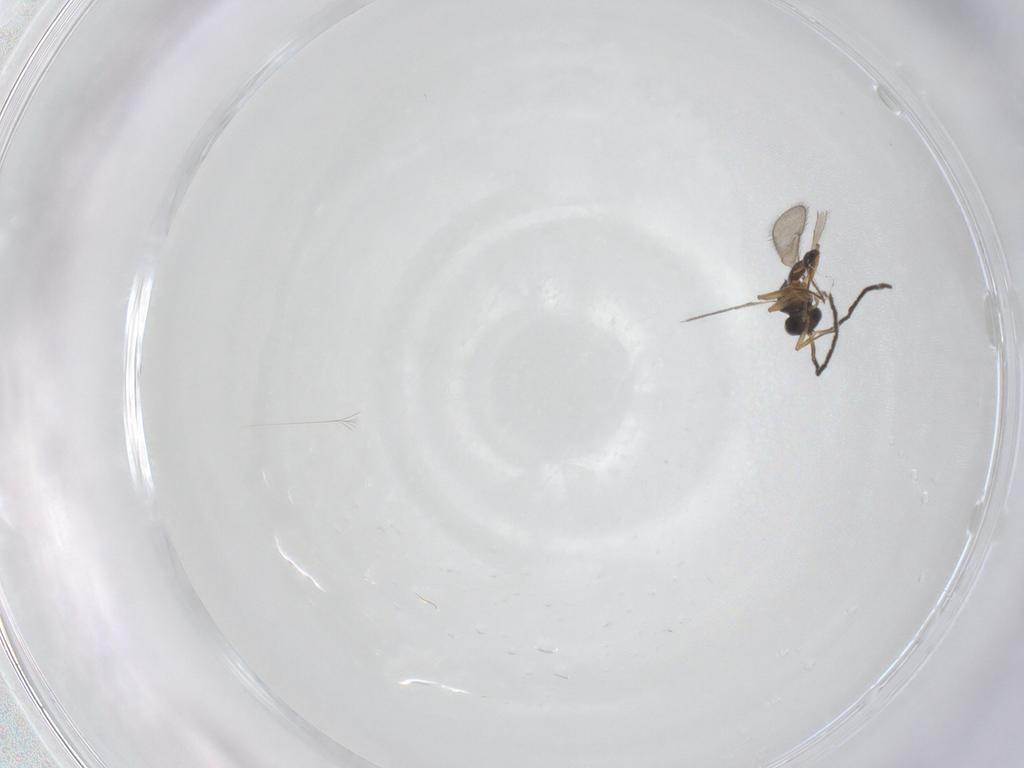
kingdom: Animalia
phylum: Arthropoda
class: Insecta
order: Hymenoptera
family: Scelionidae
